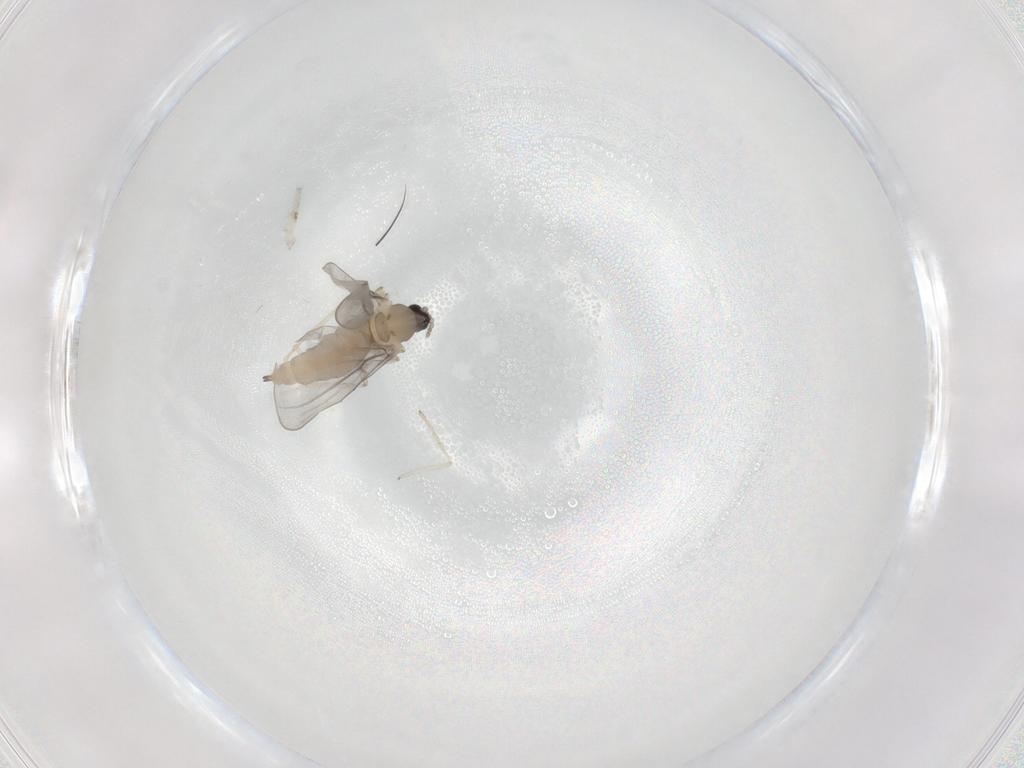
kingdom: Animalia
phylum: Arthropoda
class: Insecta
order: Diptera
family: Cecidomyiidae
